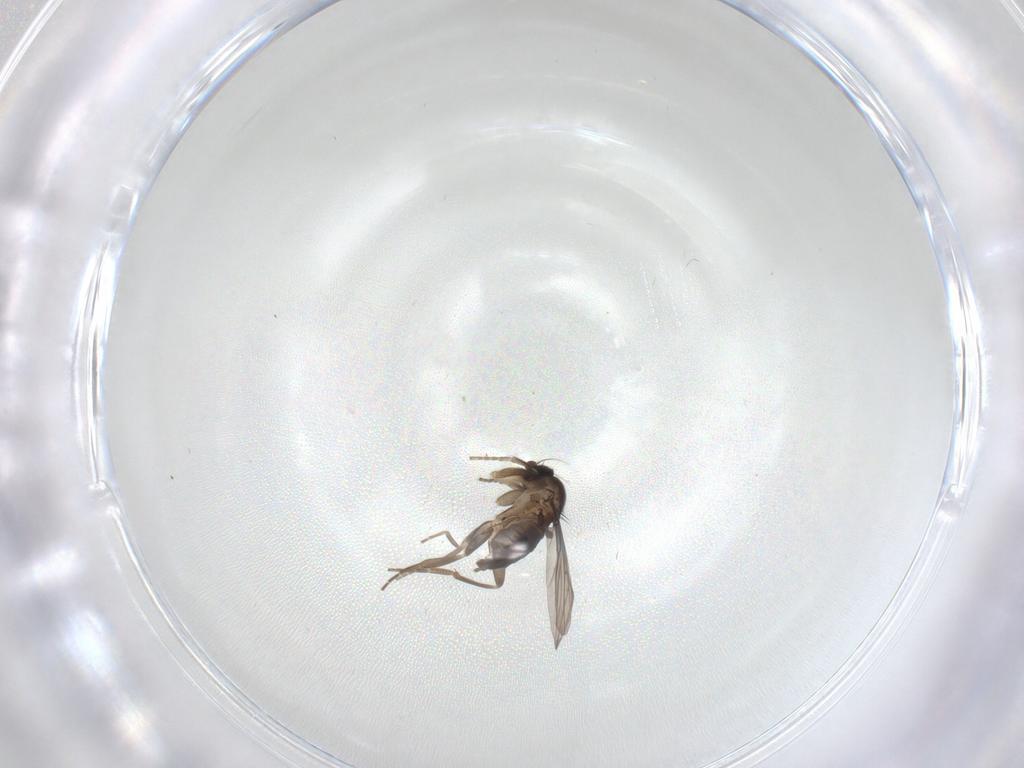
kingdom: Animalia
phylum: Arthropoda
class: Insecta
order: Diptera
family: Phoridae
